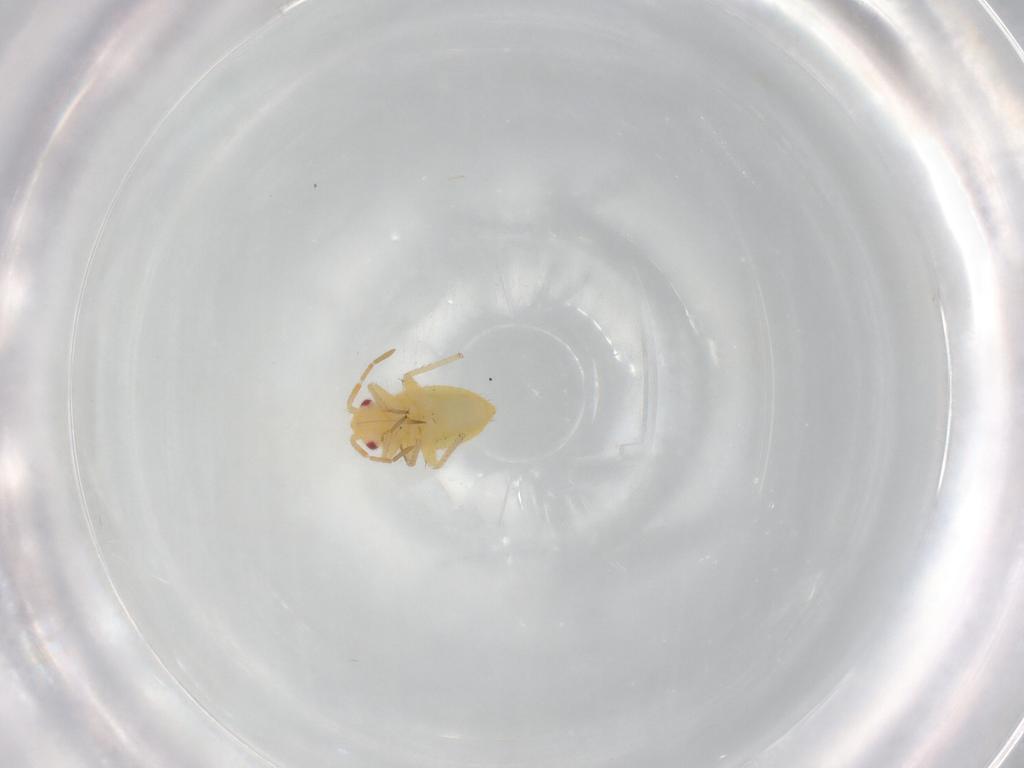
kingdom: Animalia
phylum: Arthropoda
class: Insecta
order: Hemiptera
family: Miridae
